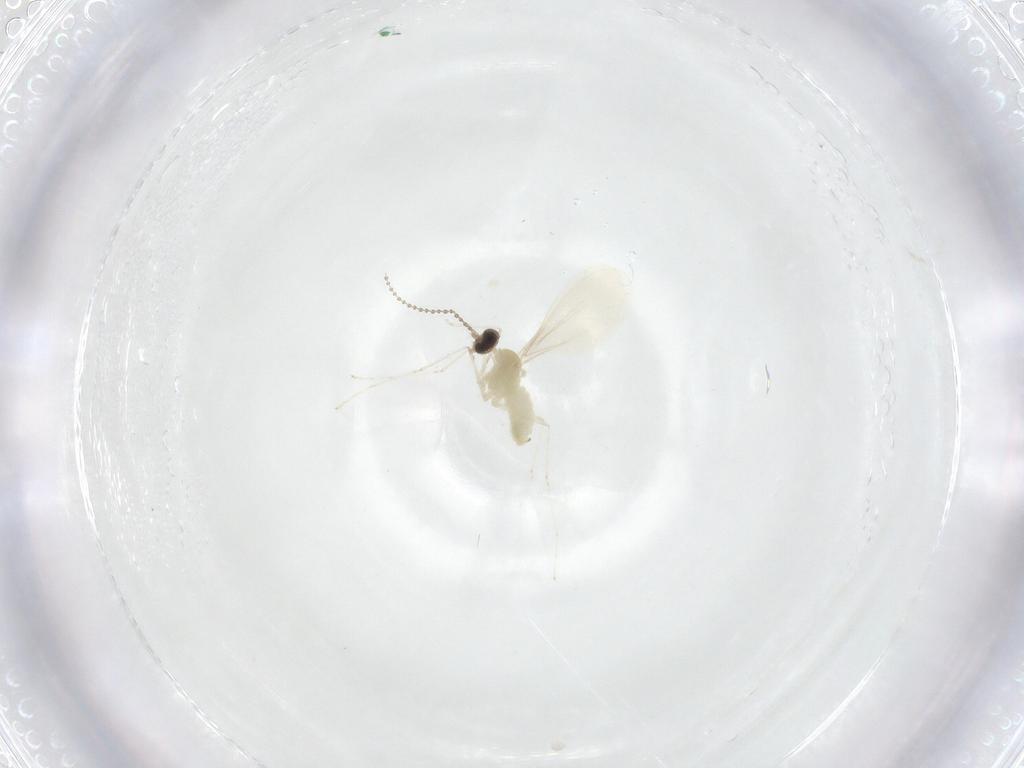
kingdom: Animalia
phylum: Arthropoda
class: Insecta
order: Diptera
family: Cecidomyiidae
